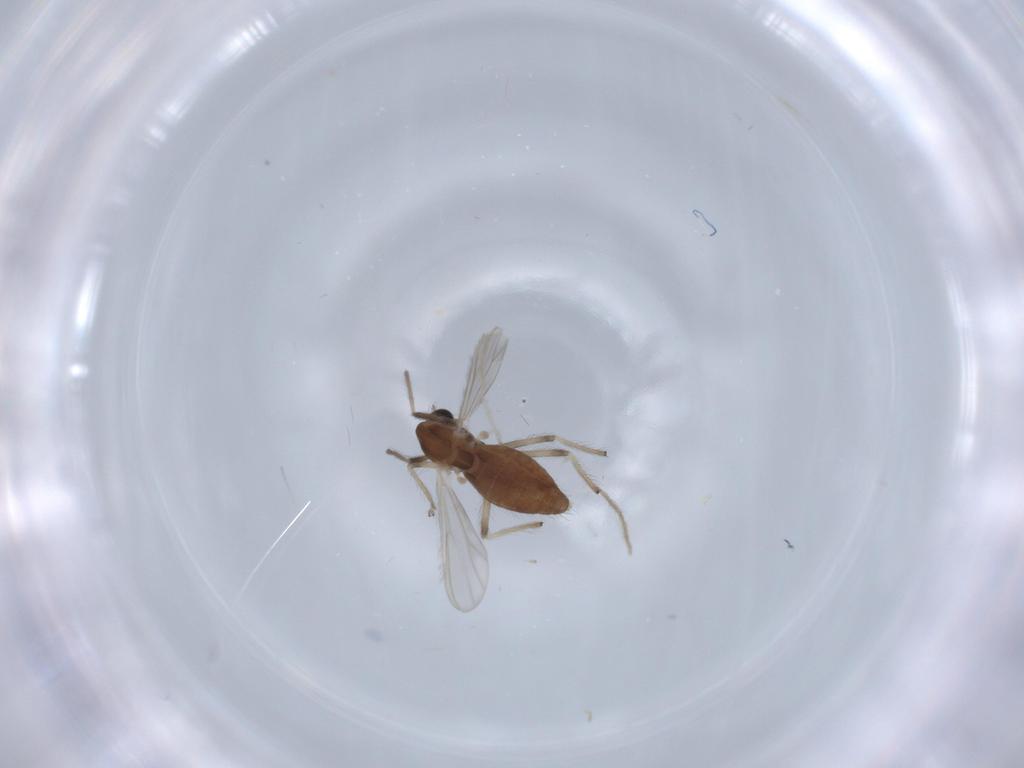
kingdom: Animalia
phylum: Arthropoda
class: Insecta
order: Diptera
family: Chironomidae
